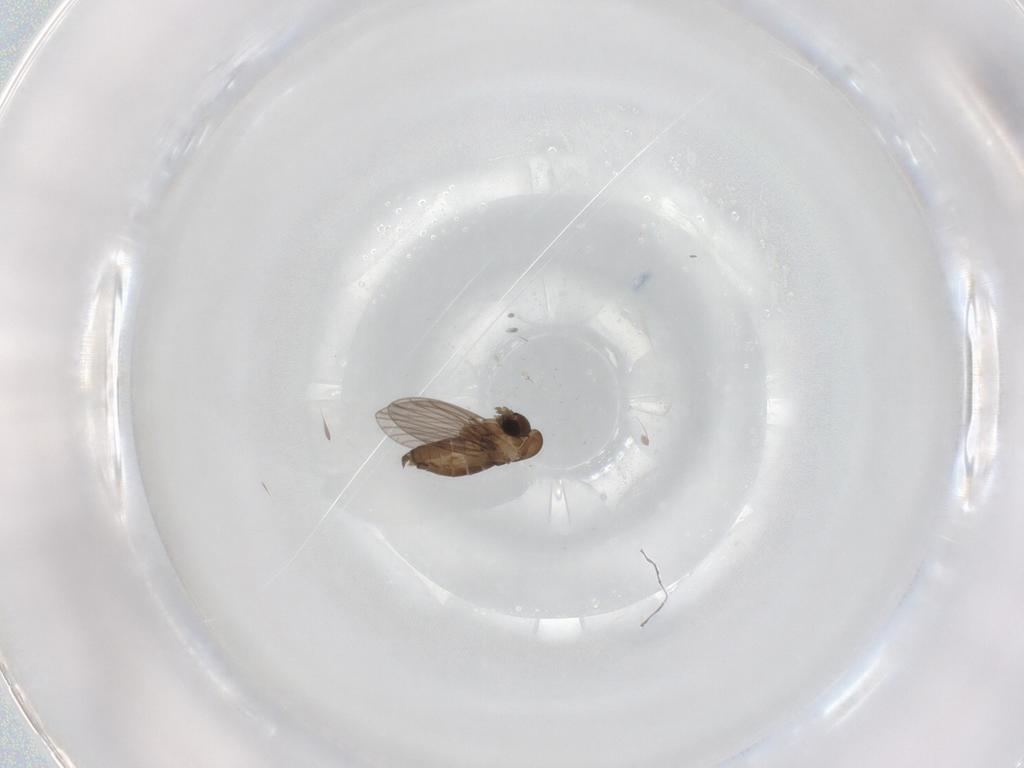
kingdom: Animalia
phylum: Arthropoda
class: Insecta
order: Diptera
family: Sciaridae
